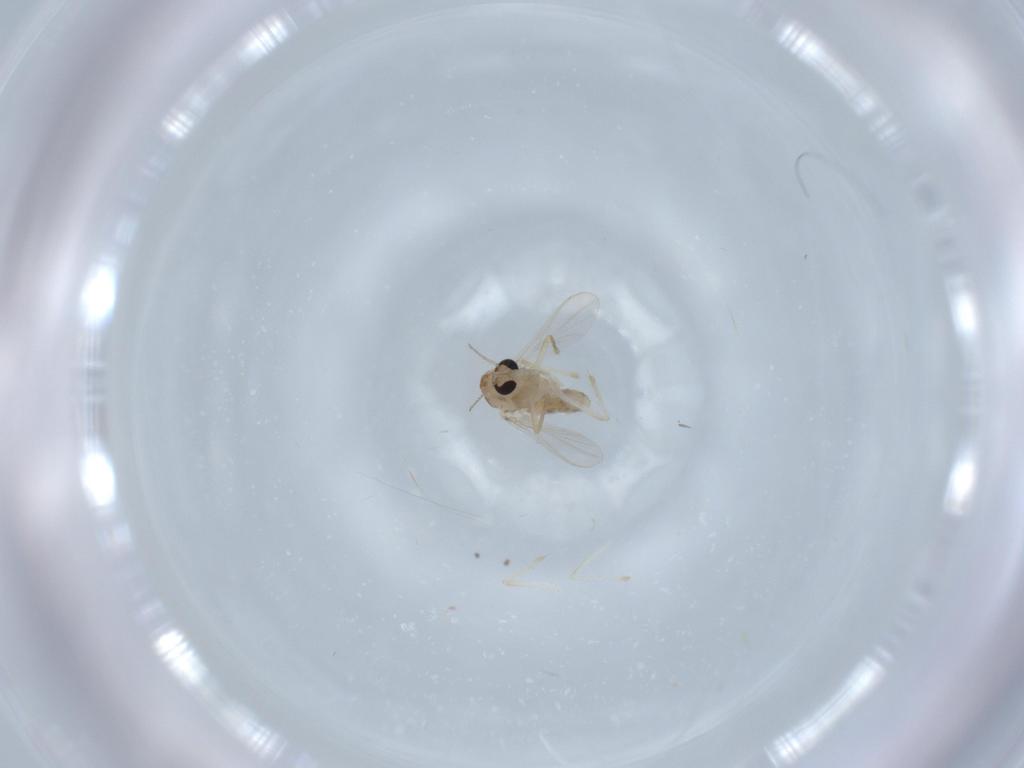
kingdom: Animalia
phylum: Arthropoda
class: Insecta
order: Diptera
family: Chironomidae
